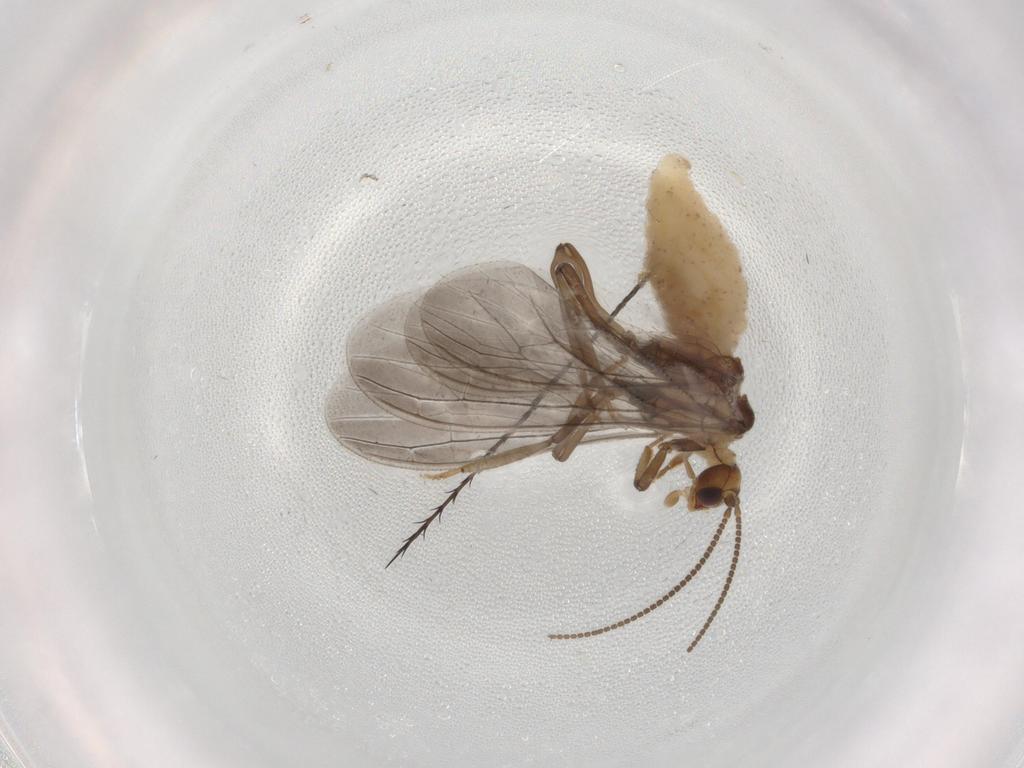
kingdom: Animalia
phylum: Arthropoda
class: Insecta
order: Neuroptera
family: Coniopterygidae
